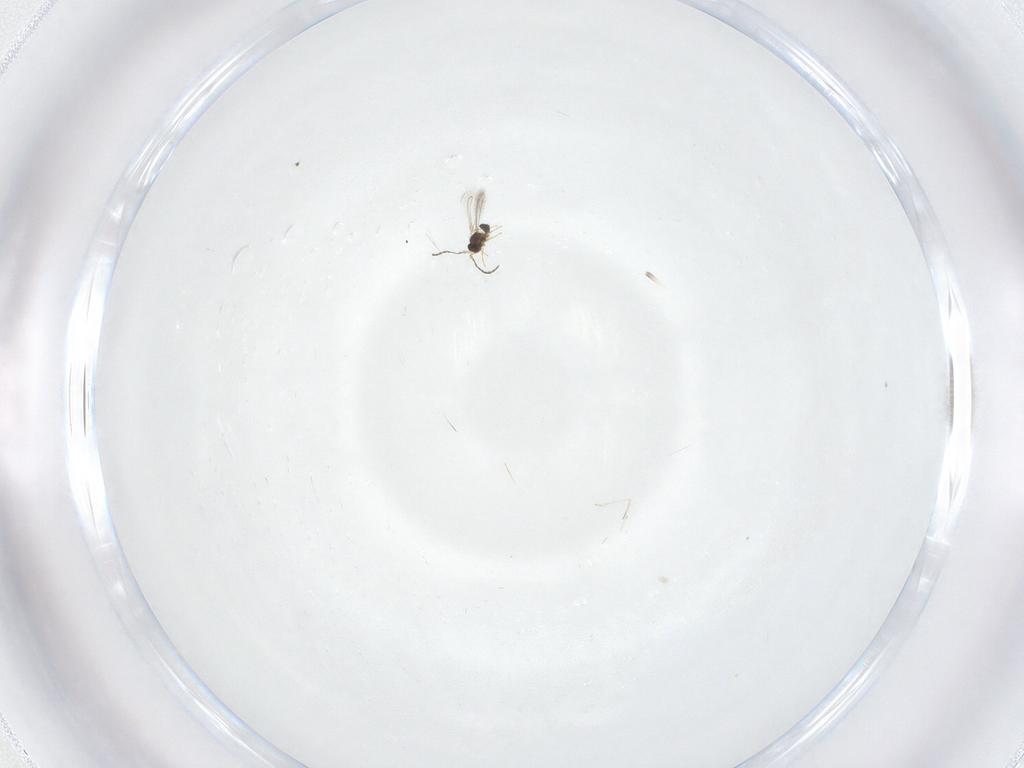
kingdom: Animalia
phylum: Arthropoda
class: Insecta
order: Diptera
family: Cecidomyiidae
